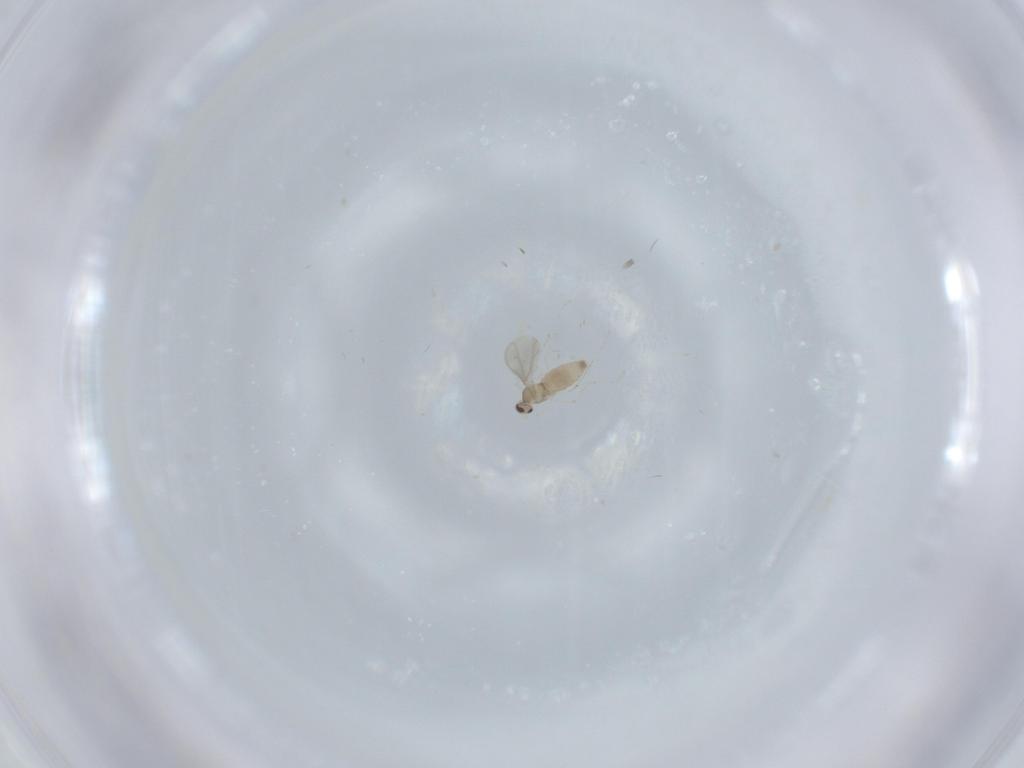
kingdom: Animalia
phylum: Arthropoda
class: Insecta
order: Diptera
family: Cecidomyiidae
